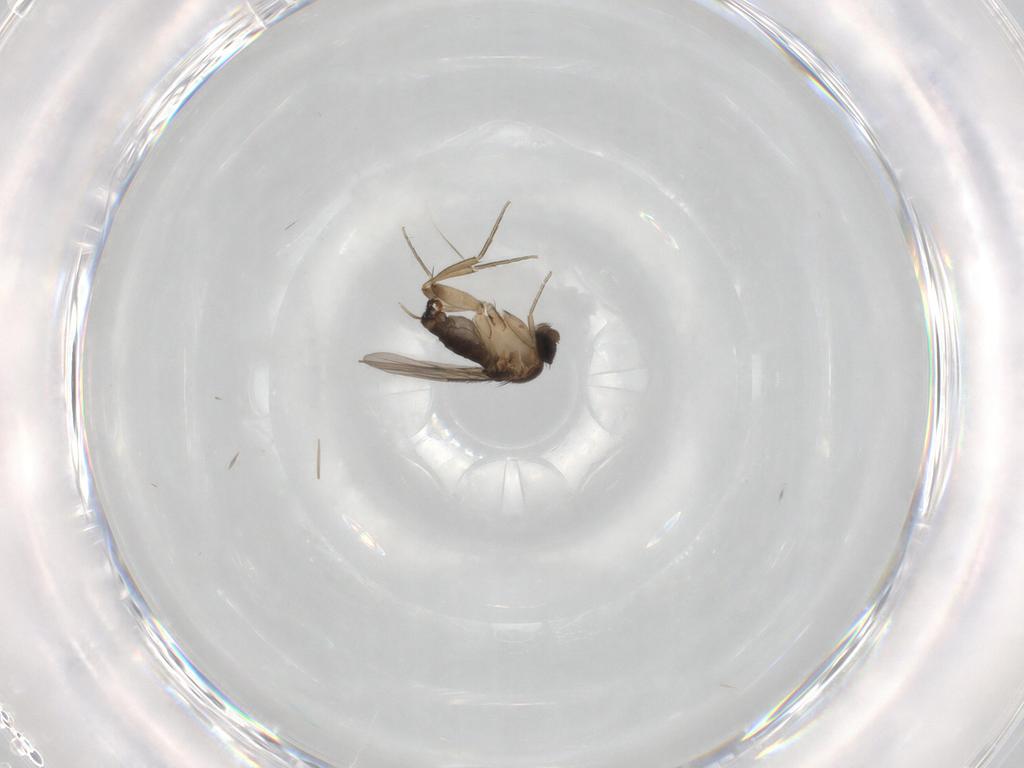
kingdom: Animalia
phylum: Arthropoda
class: Insecta
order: Diptera
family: Phoridae
